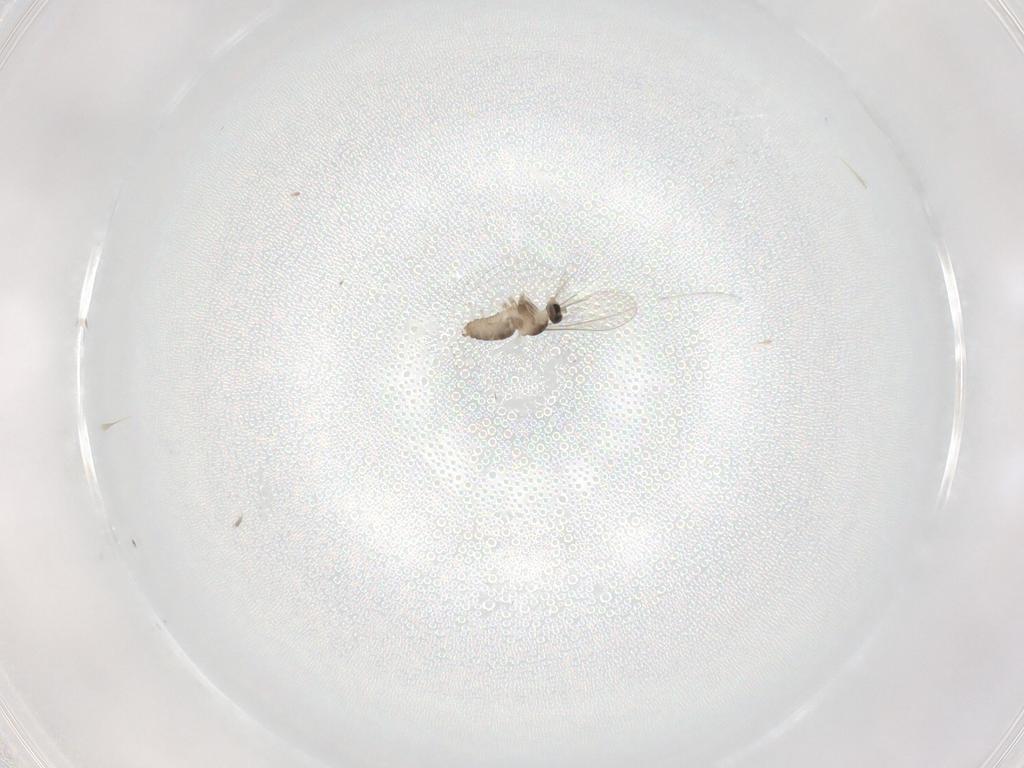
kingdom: Animalia
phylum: Arthropoda
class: Insecta
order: Diptera
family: Cecidomyiidae
